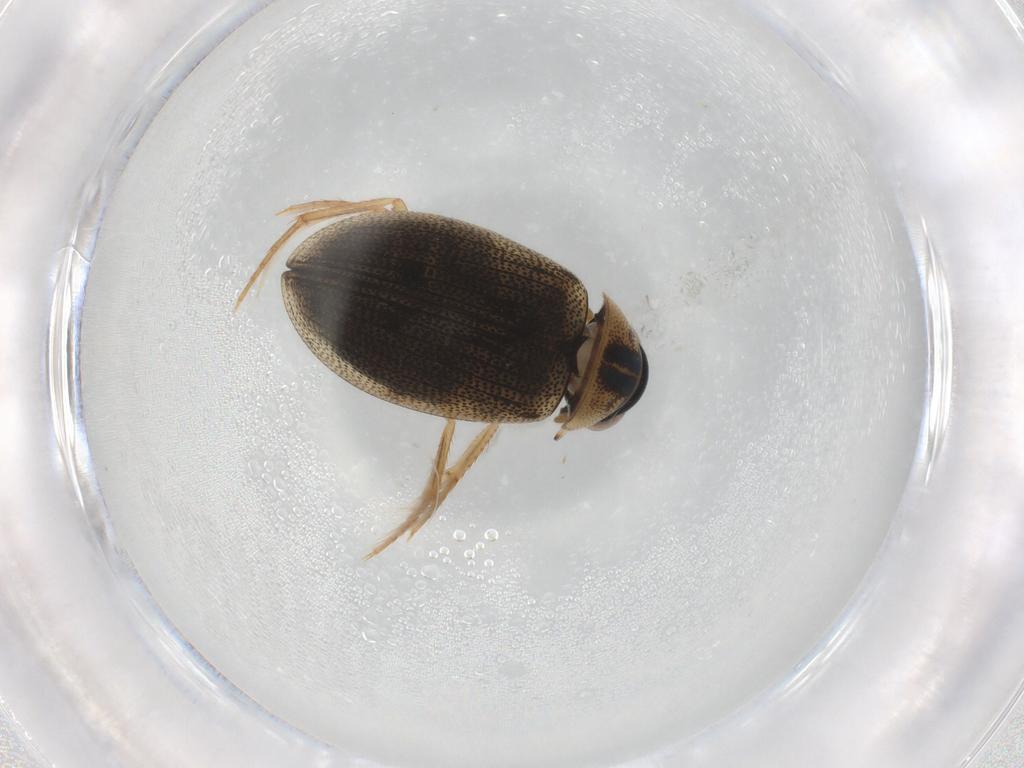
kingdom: Animalia
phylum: Arthropoda
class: Insecta
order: Coleoptera
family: Hydrophilidae
